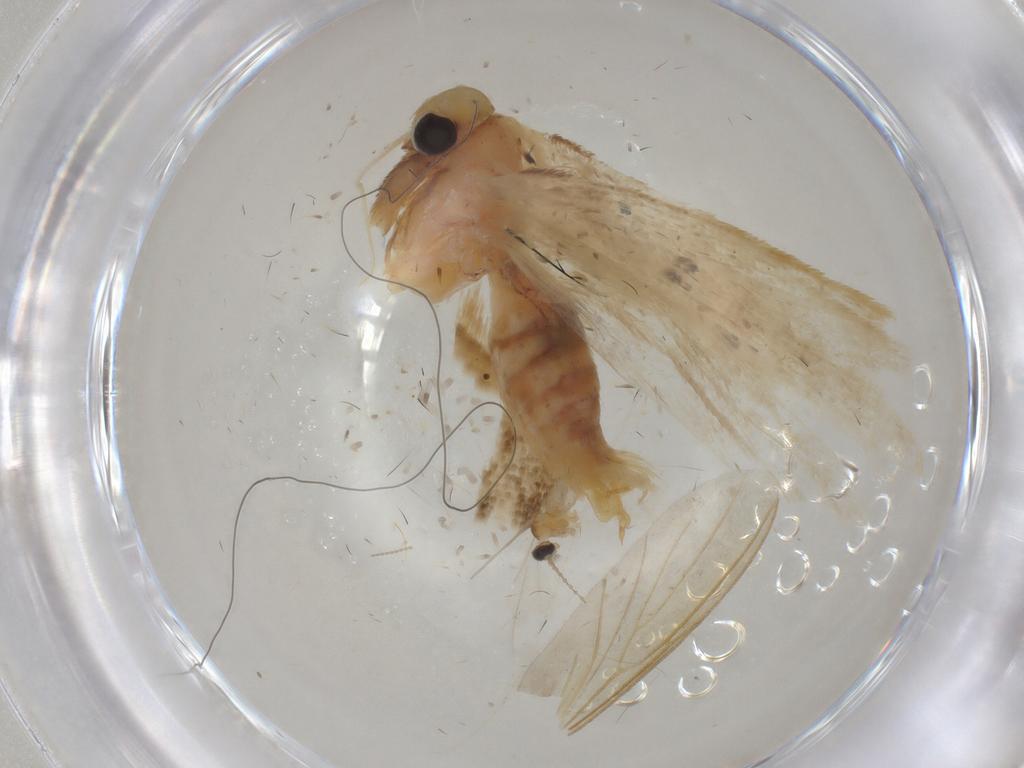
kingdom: Animalia
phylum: Arthropoda
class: Insecta
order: Lepidoptera
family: Depressariidae
